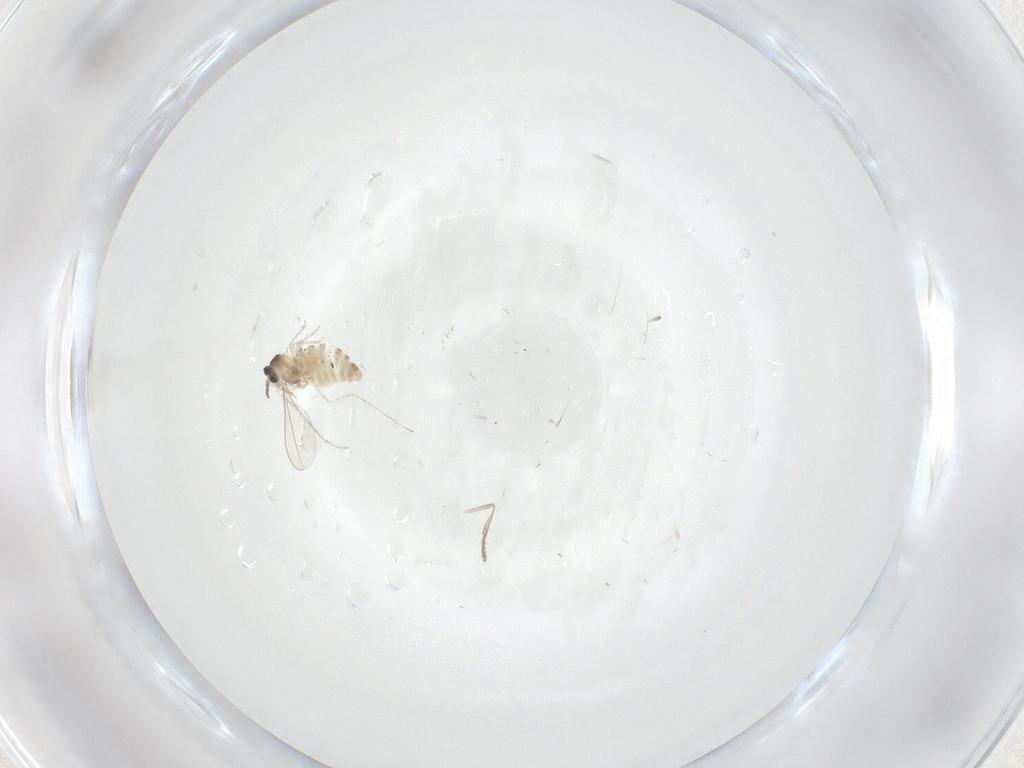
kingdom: Animalia
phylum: Arthropoda
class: Insecta
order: Diptera
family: Cecidomyiidae
